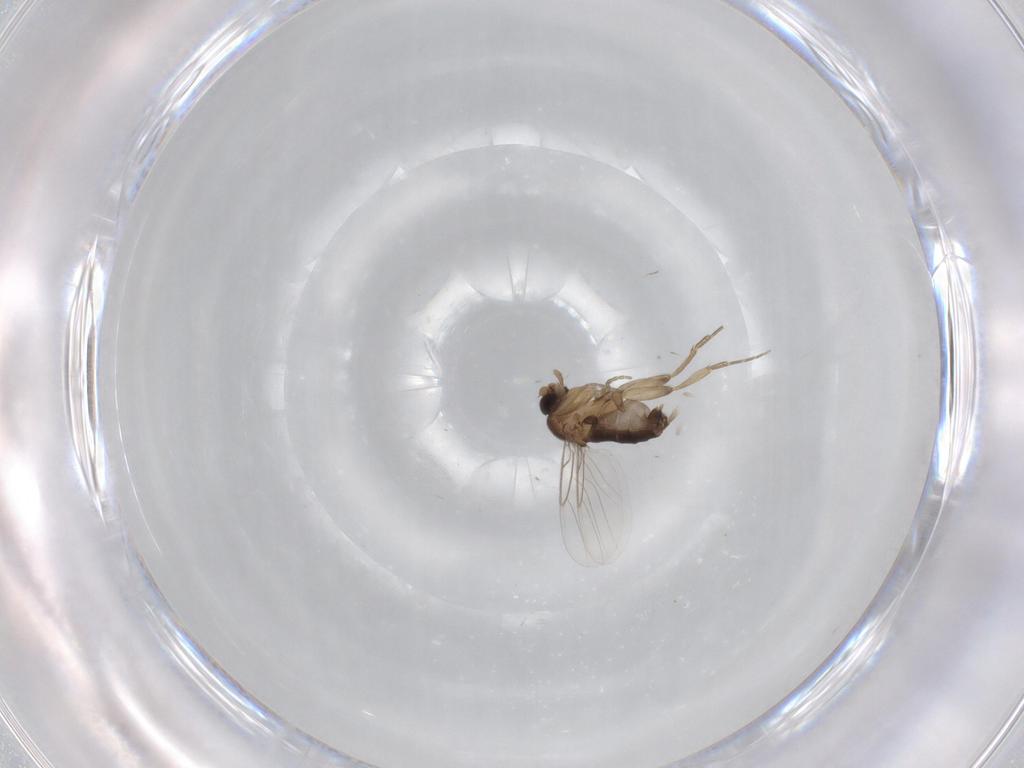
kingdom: Animalia
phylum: Arthropoda
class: Insecta
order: Diptera
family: Phoridae
